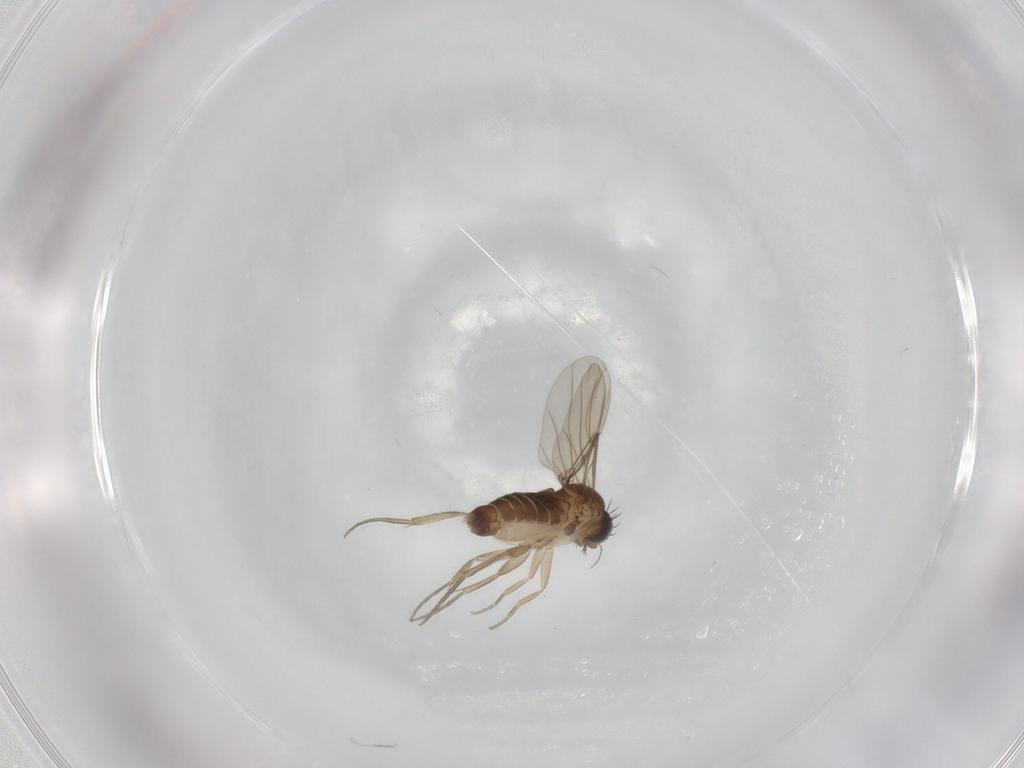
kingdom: Animalia
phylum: Arthropoda
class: Insecta
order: Diptera
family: Phoridae
